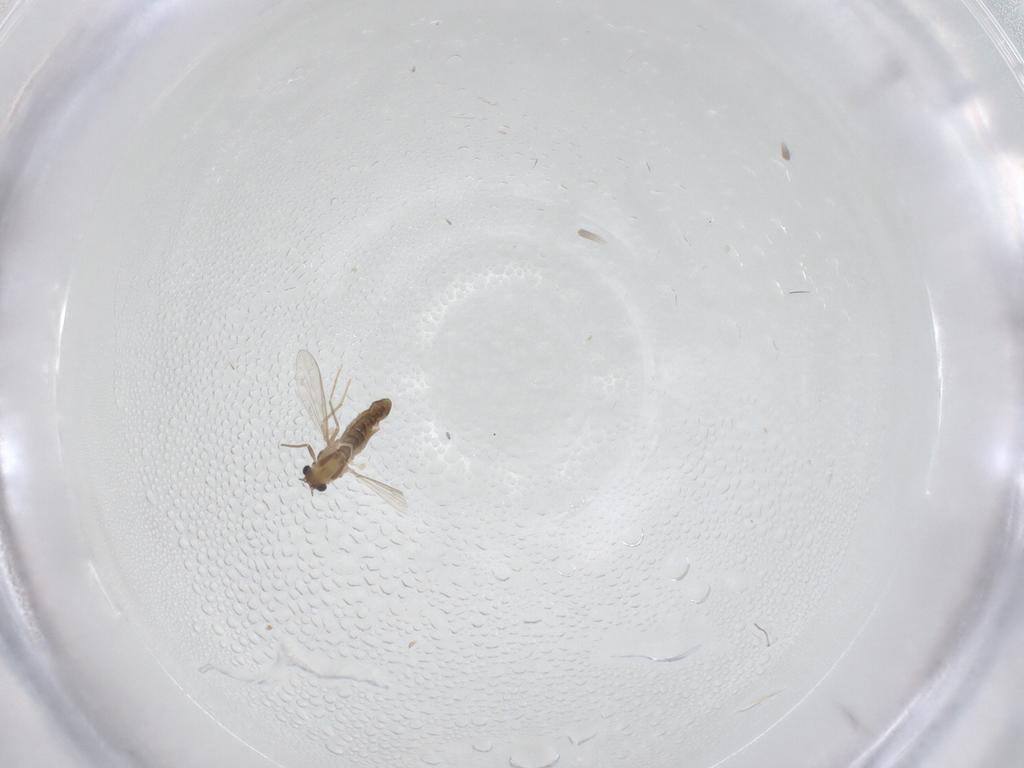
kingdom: Animalia
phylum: Arthropoda
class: Insecta
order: Diptera
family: Chironomidae
